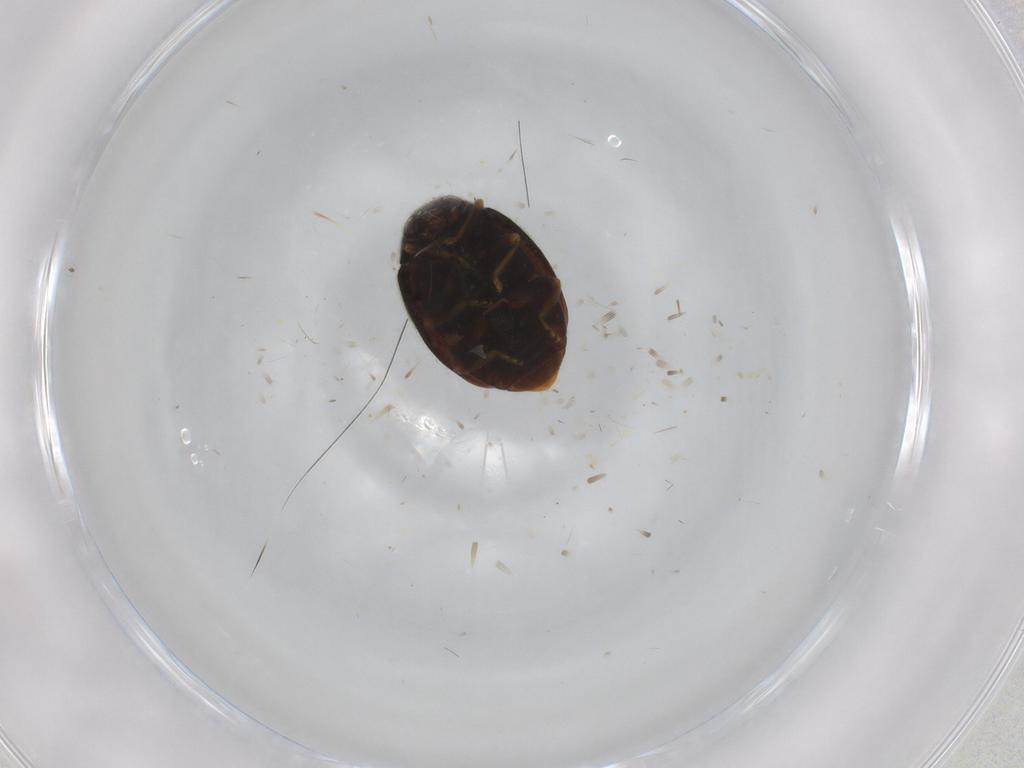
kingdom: Animalia
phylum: Arthropoda
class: Insecta
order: Coleoptera
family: Coccinellidae
